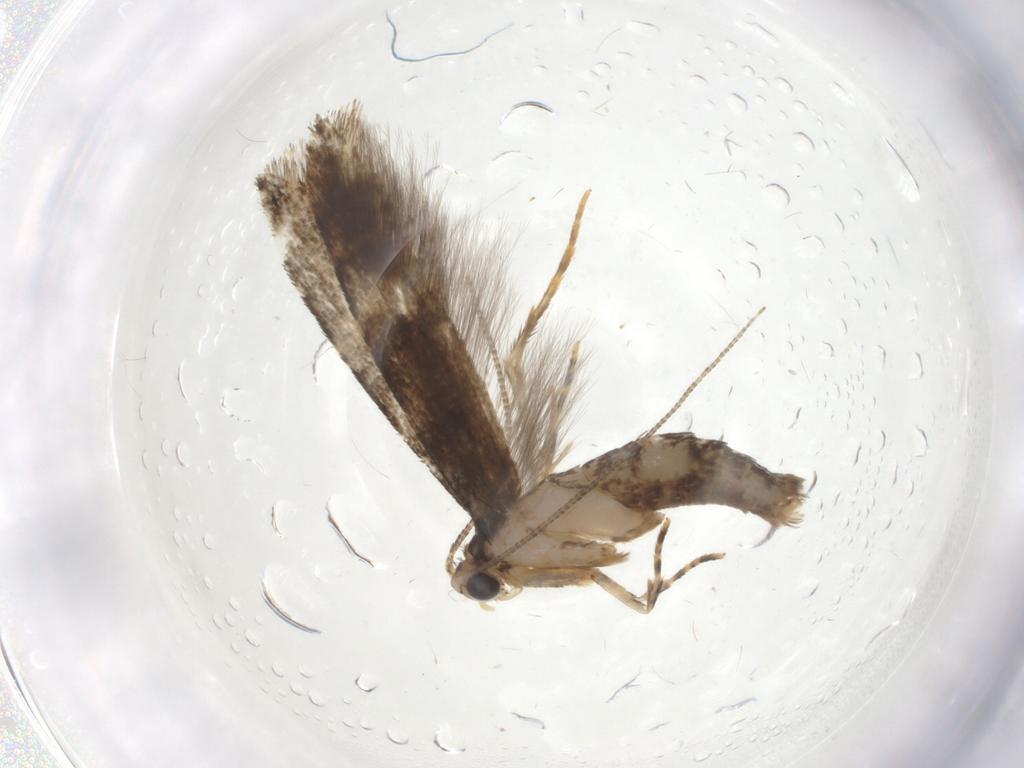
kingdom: Animalia
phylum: Arthropoda
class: Insecta
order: Lepidoptera
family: Tineidae
